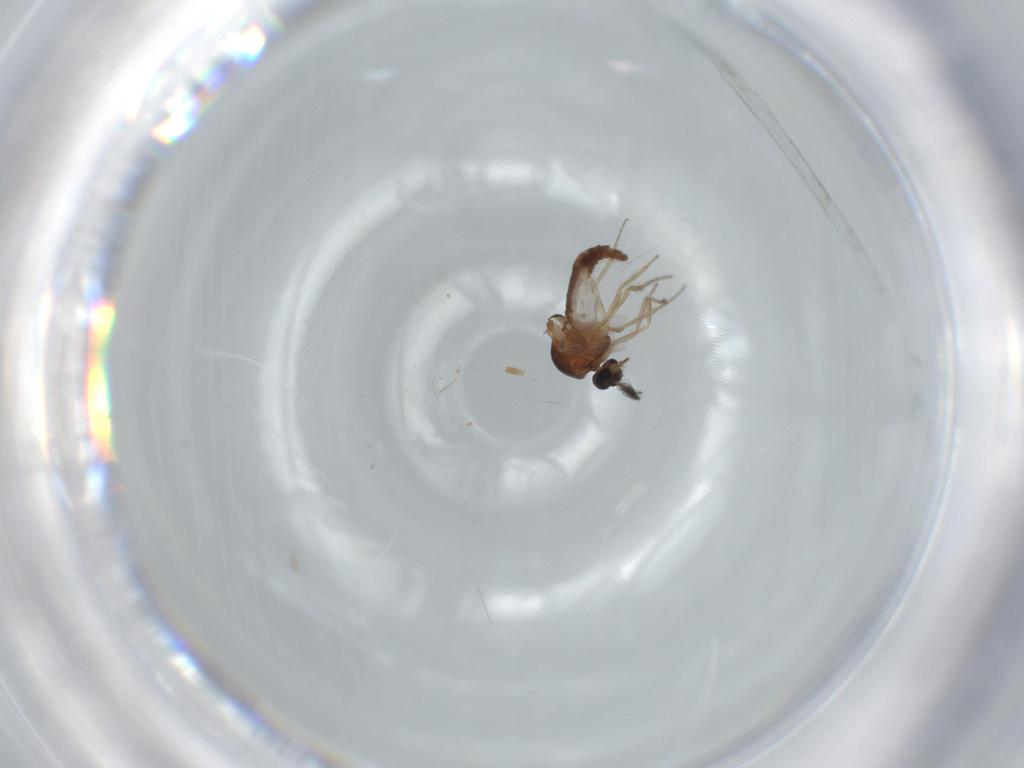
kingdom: Animalia
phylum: Arthropoda
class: Insecta
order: Diptera
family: Ceratopogonidae
